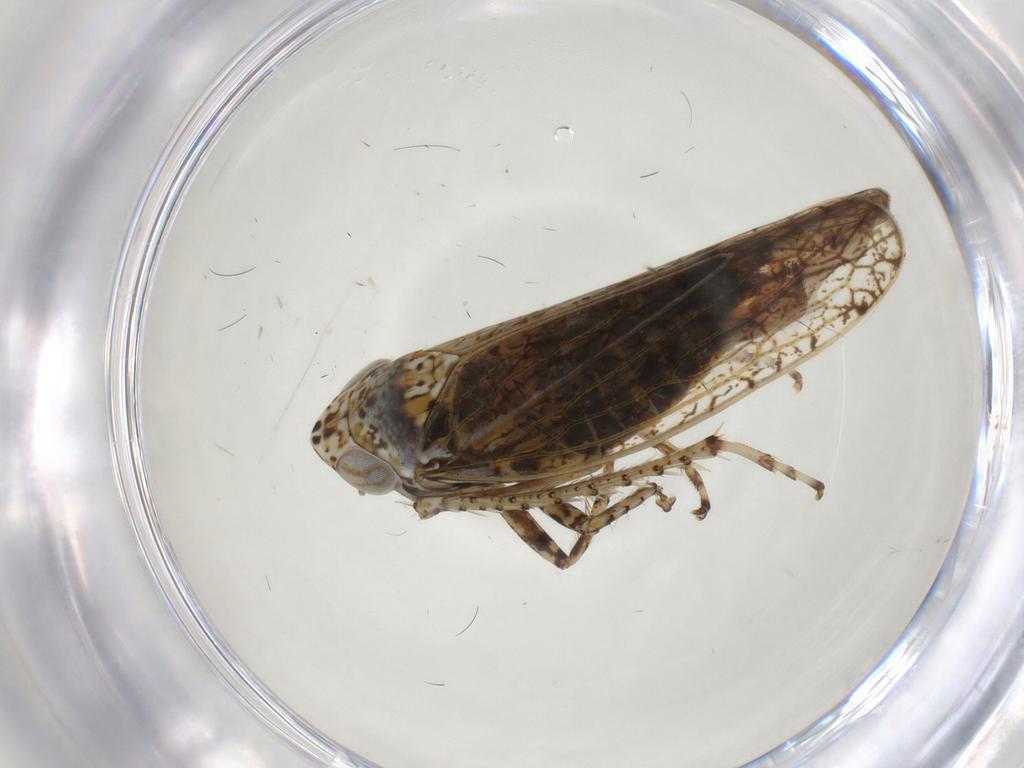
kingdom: Animalia
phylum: Arthropoda
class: Insecta
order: Hemiptera
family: Cicadellidae
